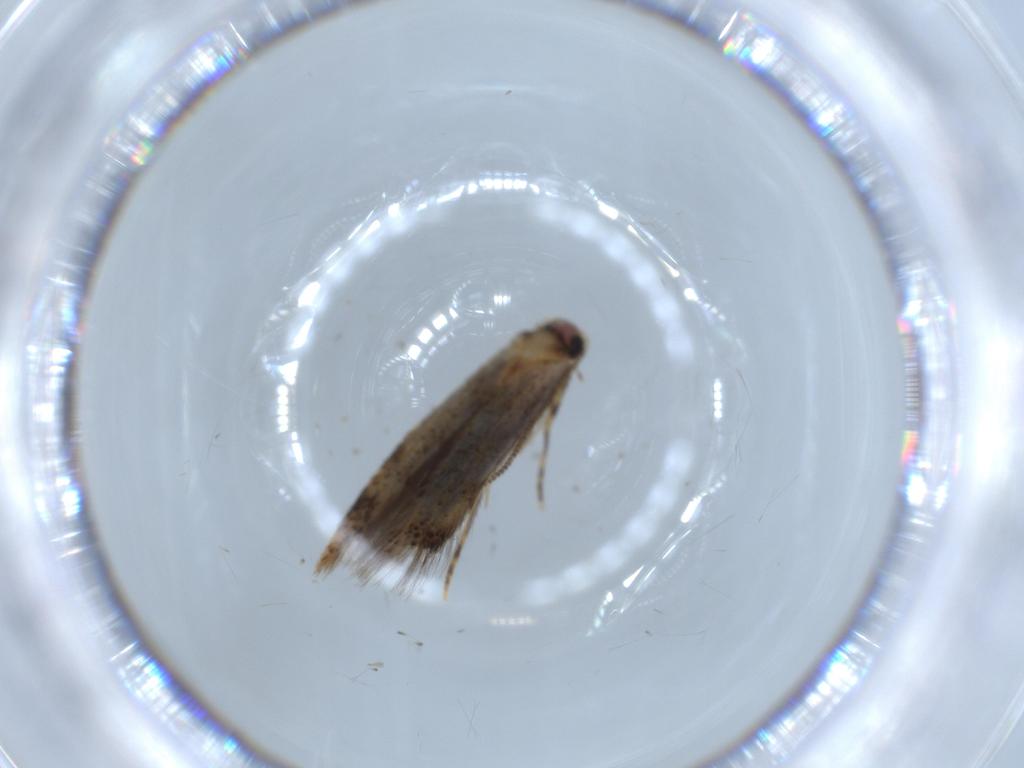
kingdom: Animalia
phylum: Arthropoda
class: Insecta
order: Lepidoptera
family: Tineidae
